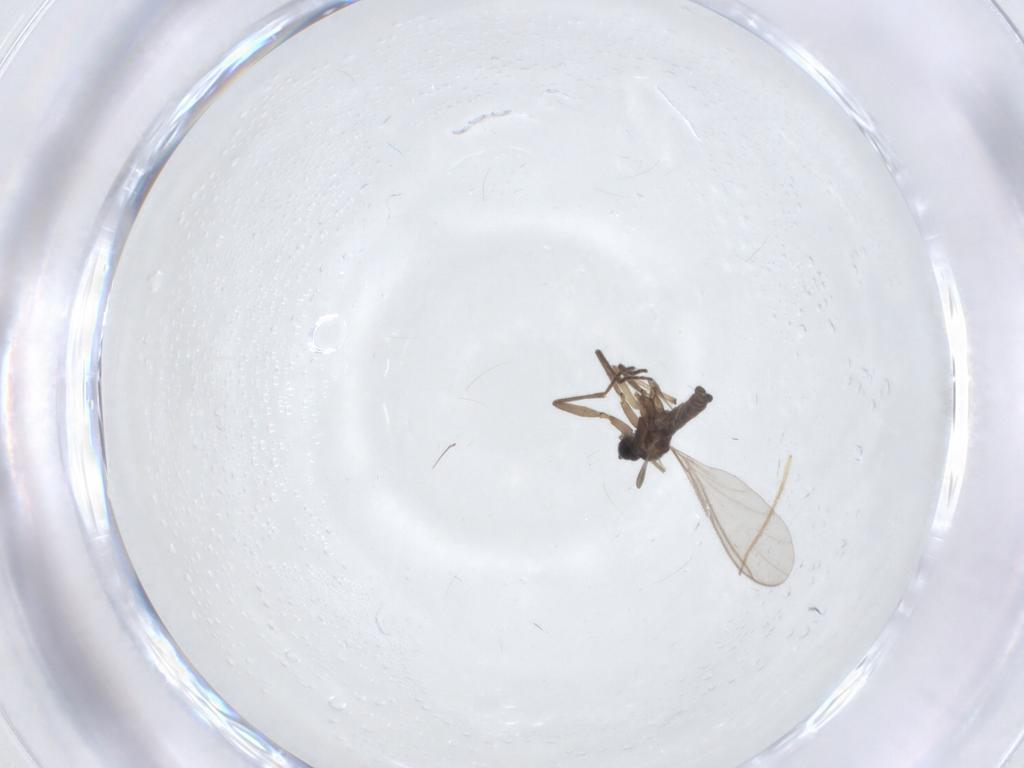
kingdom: Animalia
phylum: Arthropoda
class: Insecta
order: Diptera
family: Sciaridae
